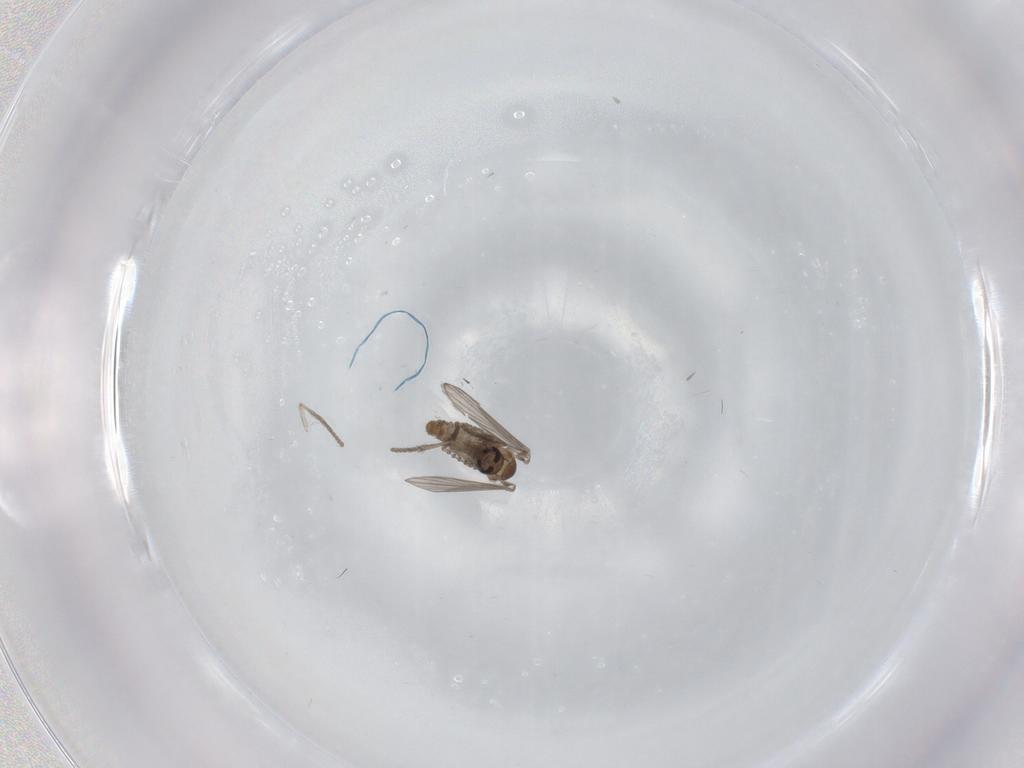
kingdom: Animalia
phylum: Arthropoda
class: Insecta
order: Diptera
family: Psychodidae
